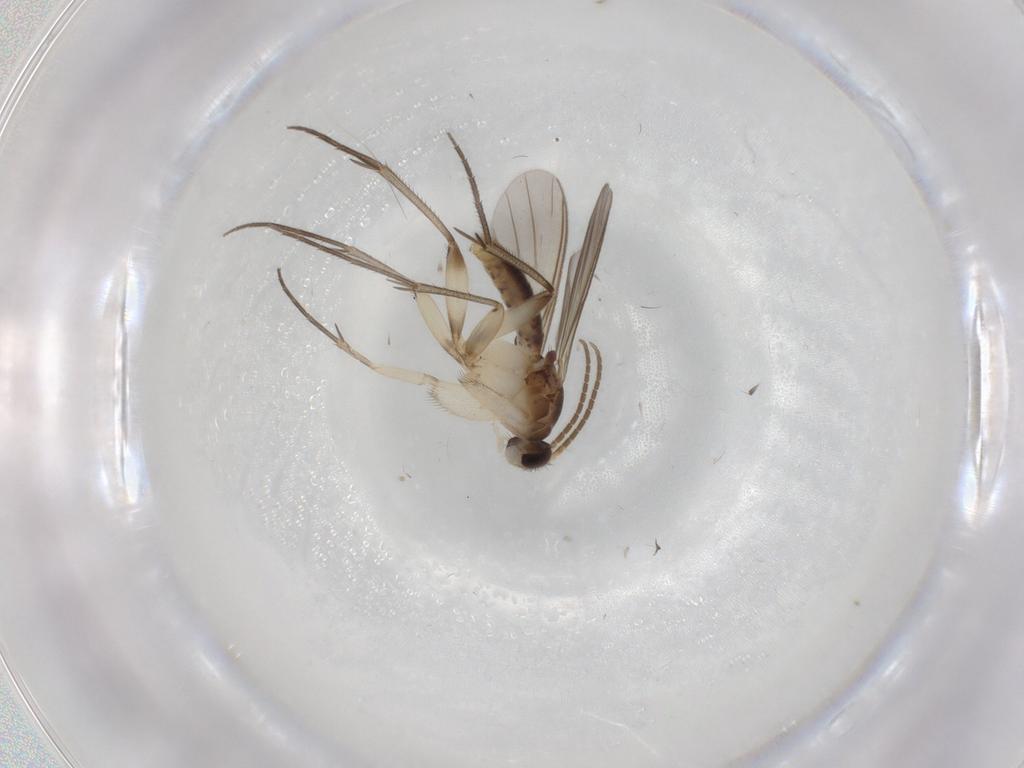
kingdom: Animalia
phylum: Arthropoda
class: Insecta
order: Diptera
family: Mycetophilidae
